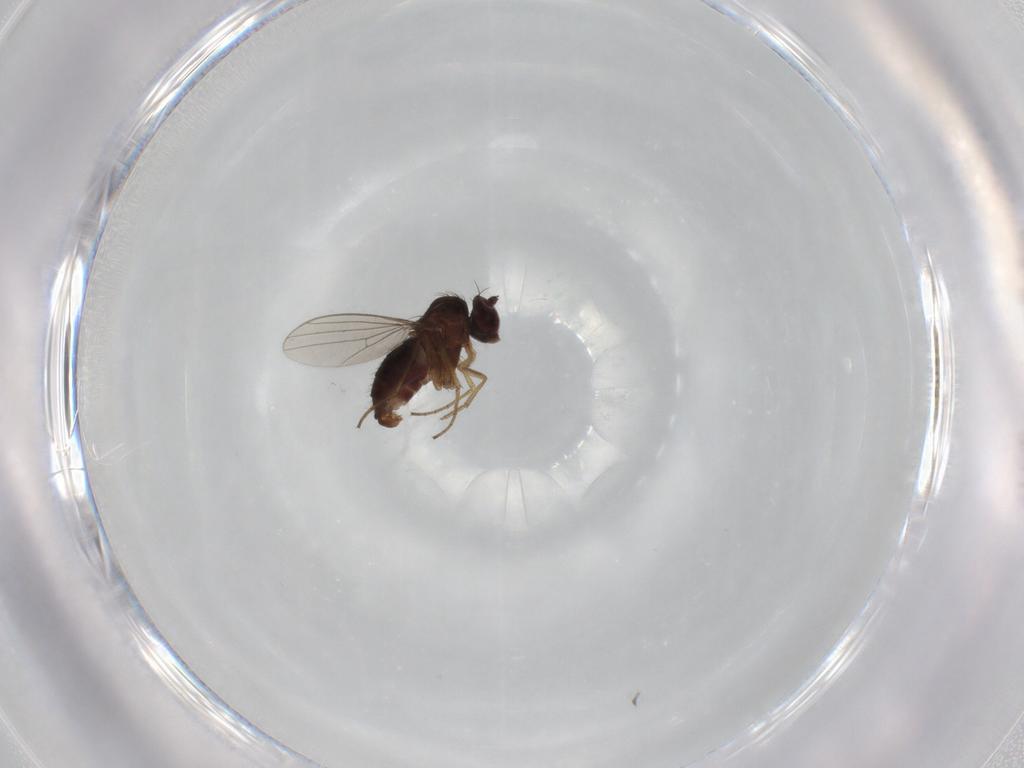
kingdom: Animalia
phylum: Arthropoda
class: Insecta
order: Diptera
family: Dolichopodidae
